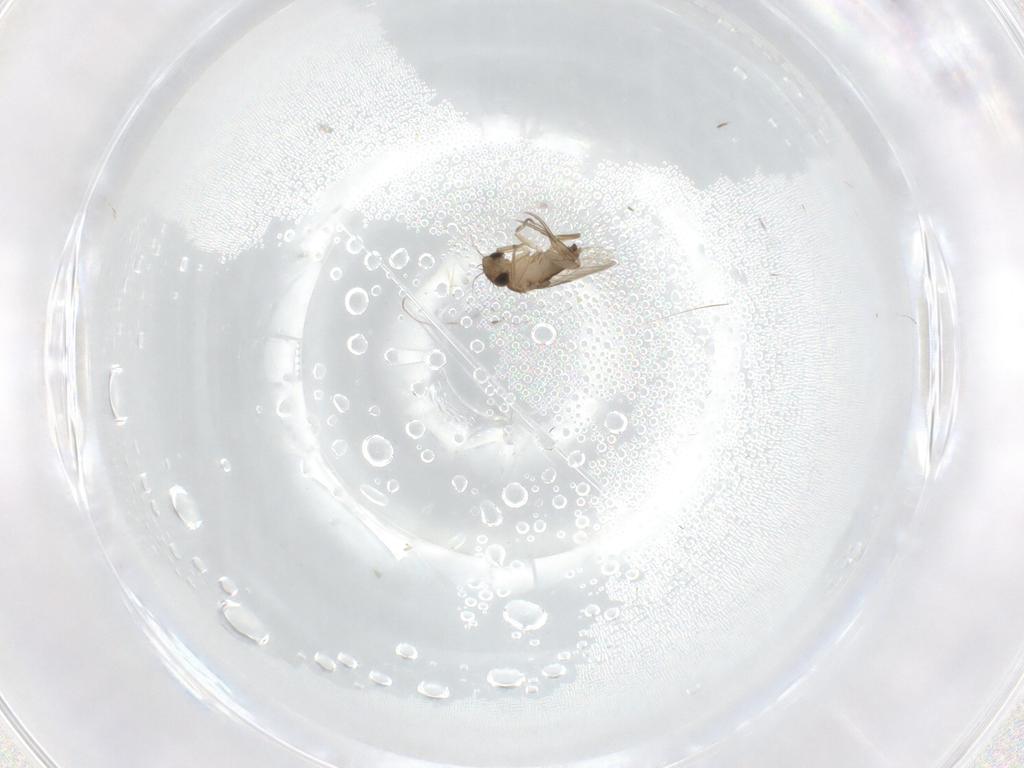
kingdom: Animalia
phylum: Arthropoda
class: Insecta
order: Diptera
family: Phoridae
